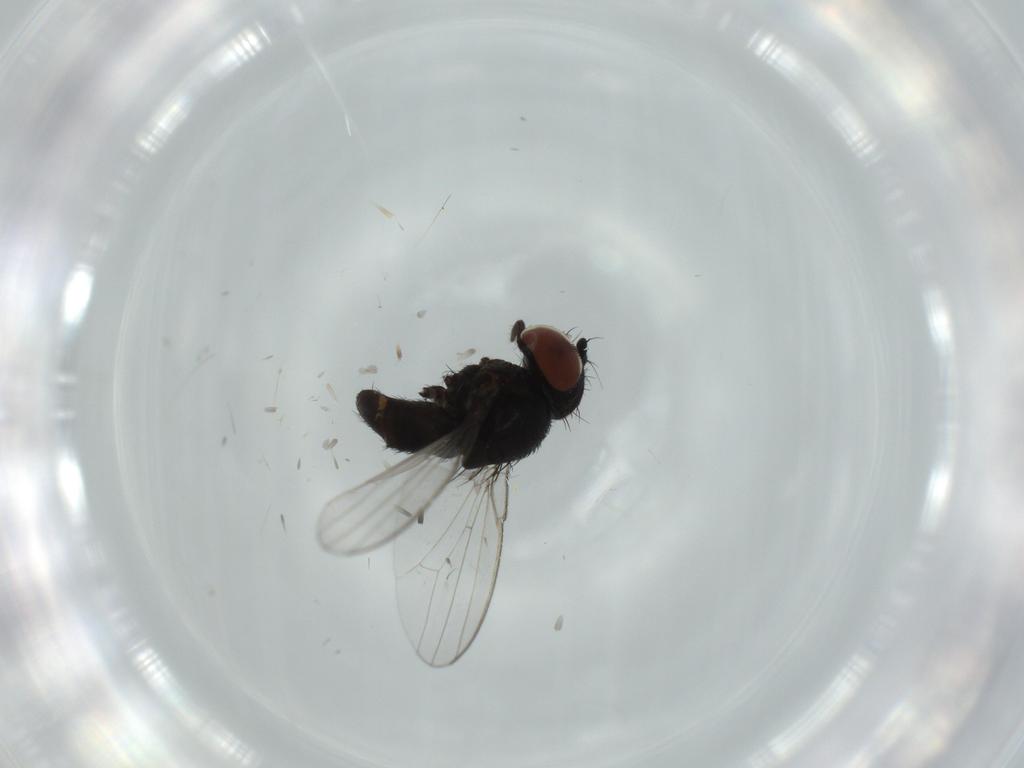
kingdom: Animalia
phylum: Arthropoda
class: Insecta
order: Diptera
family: Milichiidae
